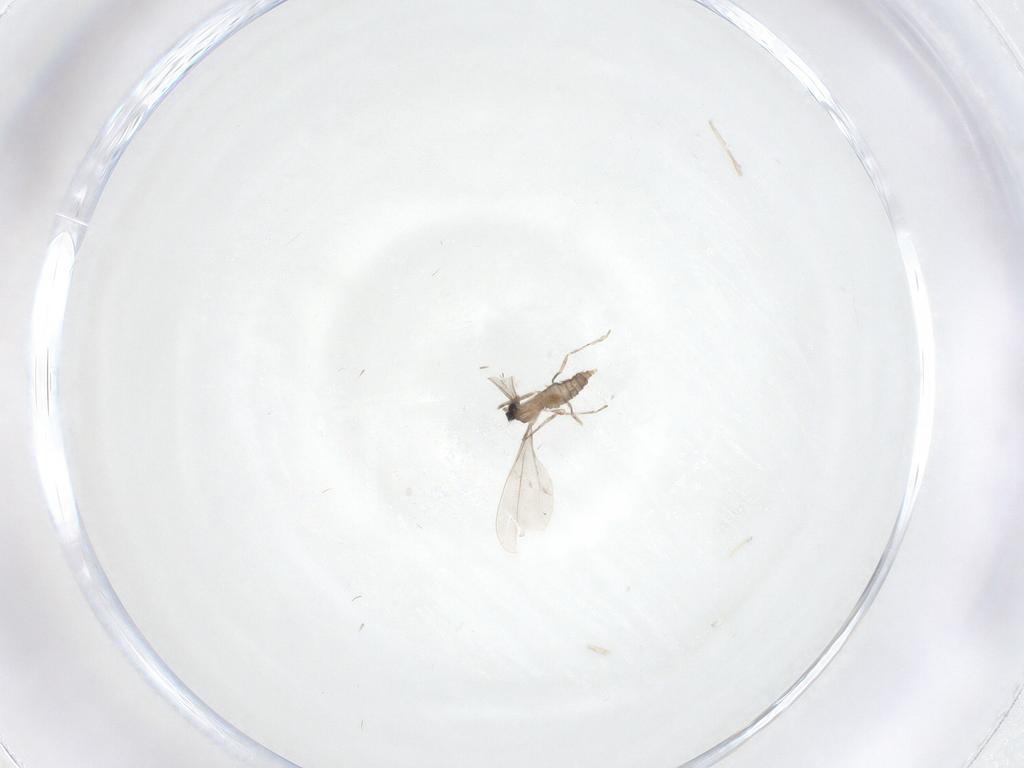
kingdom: Animalia
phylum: Arthropoda
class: Insecta
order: Diptera
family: Cecidomyiidae
